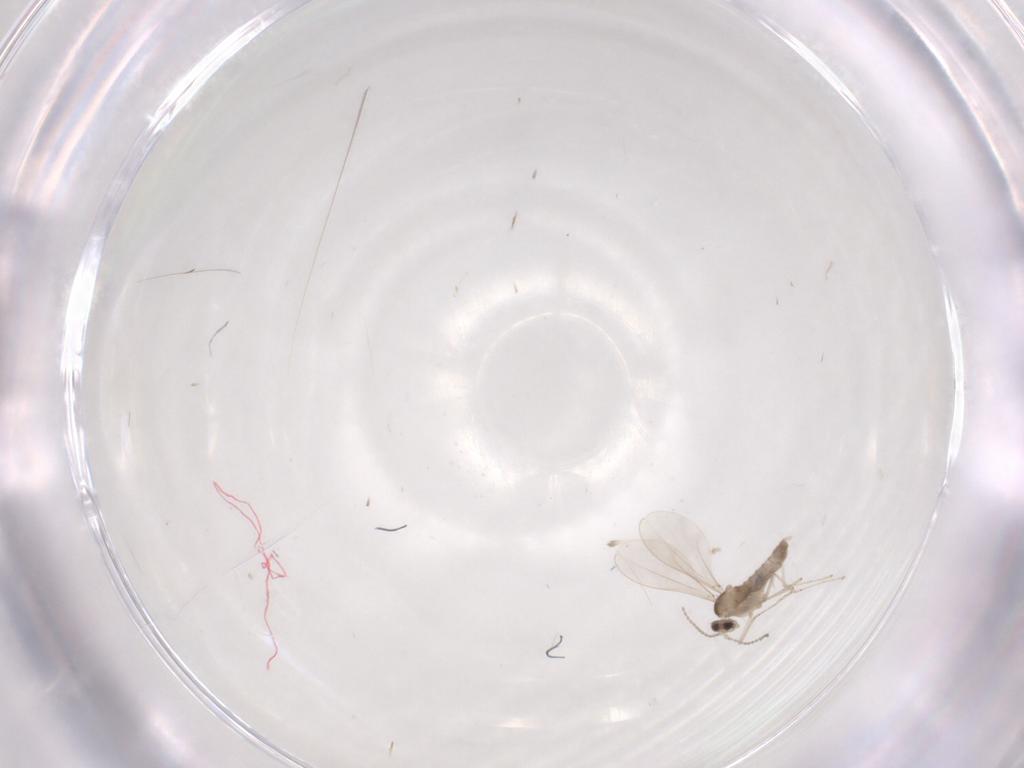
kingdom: Animalia
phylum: Arthropoda
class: Insecta
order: Diptera
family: Cecidomyiidae
